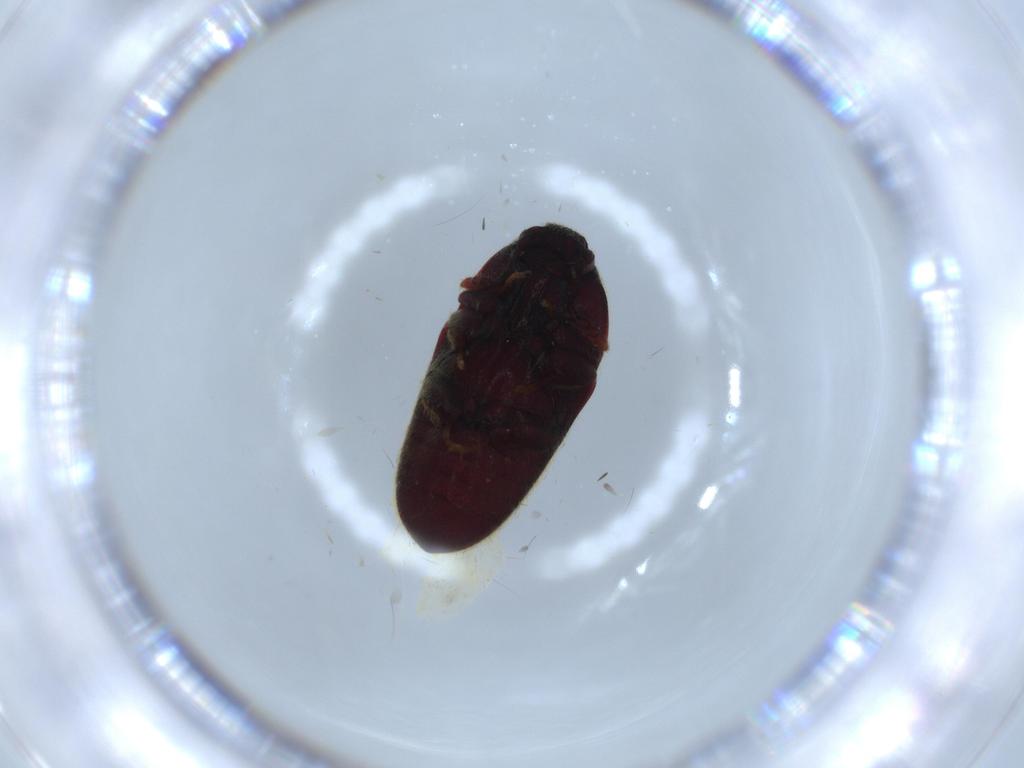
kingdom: Animalia
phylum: Arthropoda
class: Insecta
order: Coleoptera
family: Throscidae
